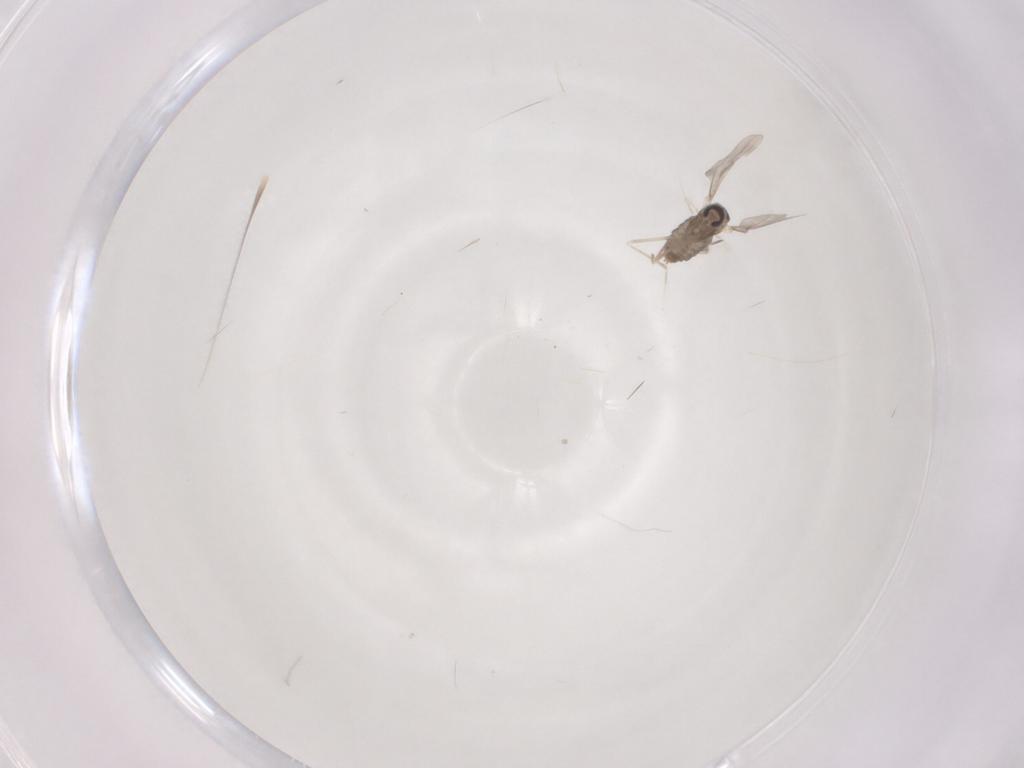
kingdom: Animalia
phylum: Arthropoda
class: Insecta
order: Diptera
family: Cecidomyiidae
